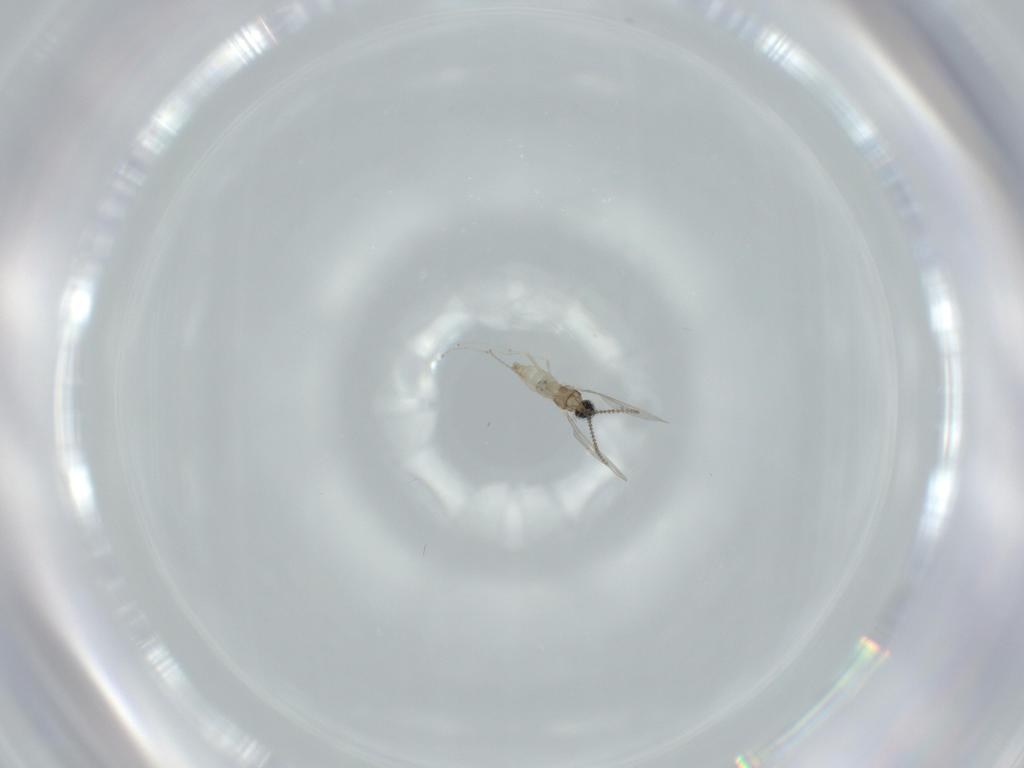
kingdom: Animalia
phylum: Arthropoda
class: Insecta
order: Diptera
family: Cecidomyiidae
